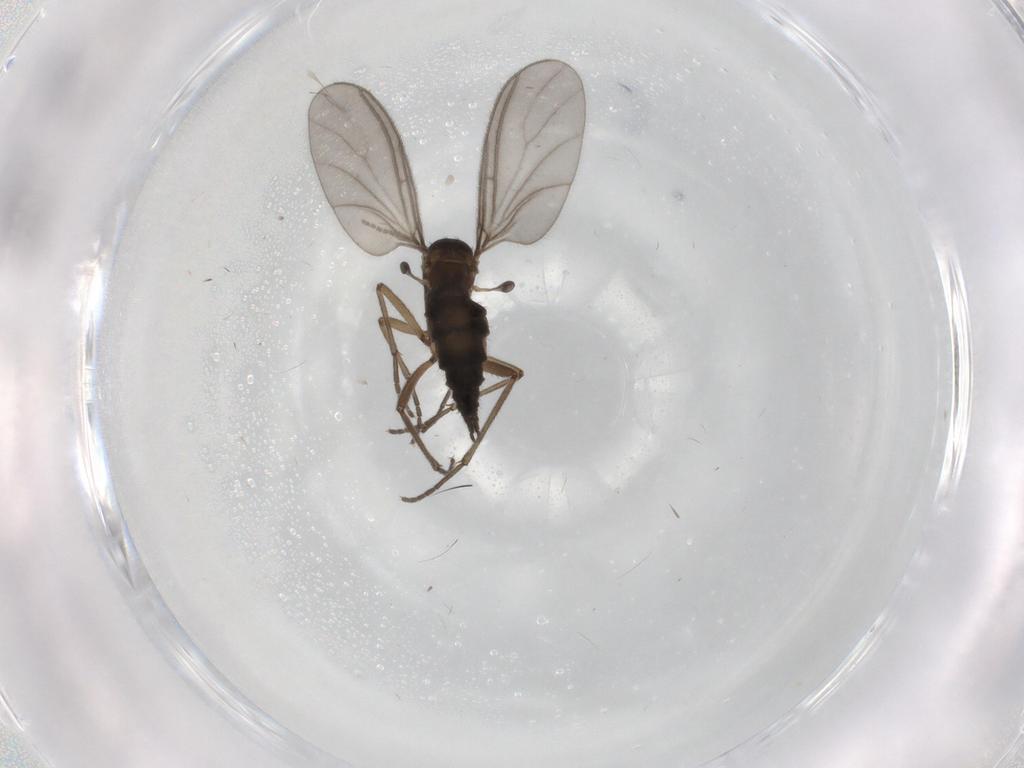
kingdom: Animalia
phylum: Arthropoda
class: Insecta
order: Diptera
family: Sciaridae
